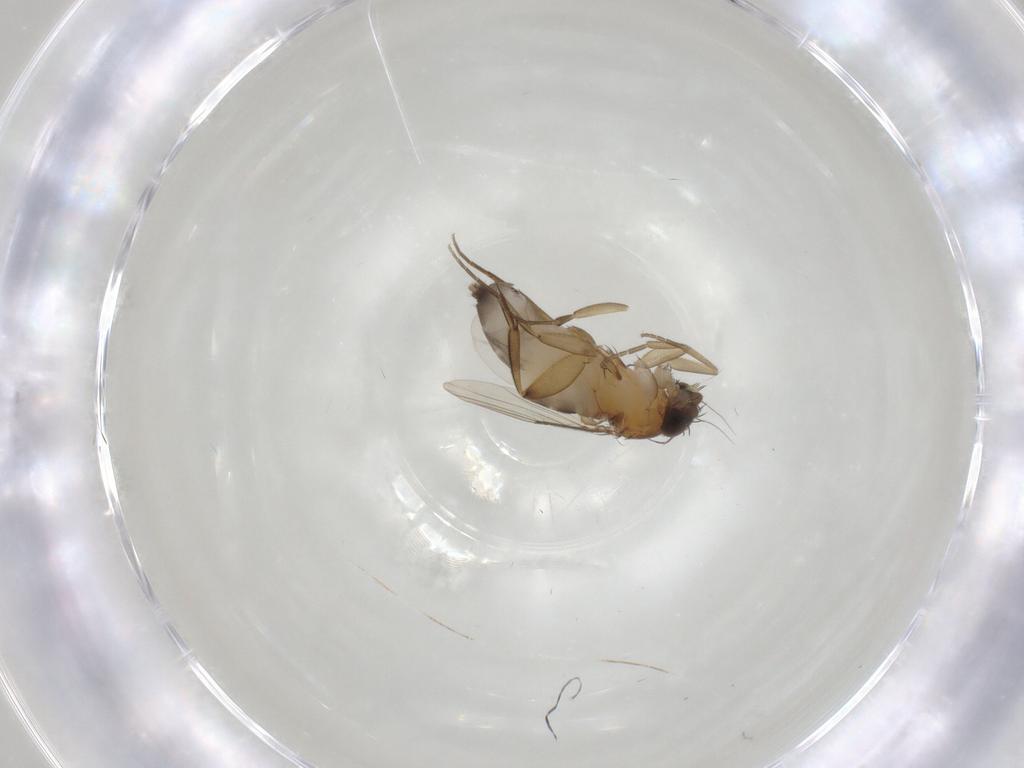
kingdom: Animalia
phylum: Arthropoda
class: Insecta
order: Diptera
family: Phoridae
